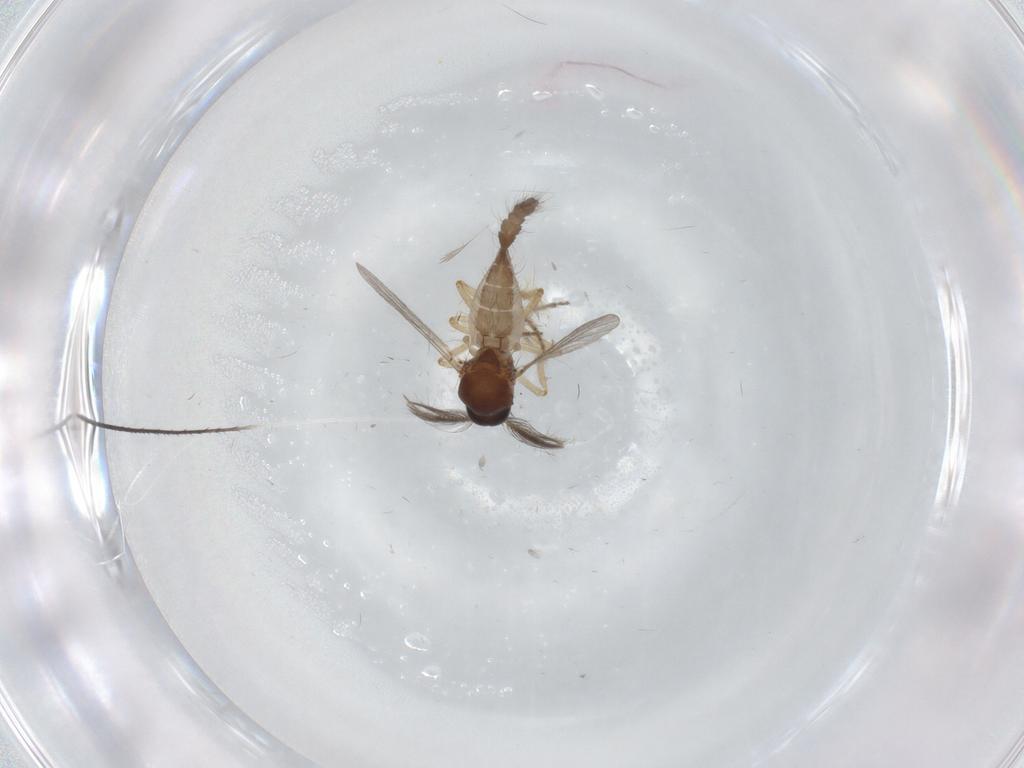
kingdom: Animalia
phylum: Arthropoda
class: Insecta
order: Diptera
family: Ceratopogonidae
